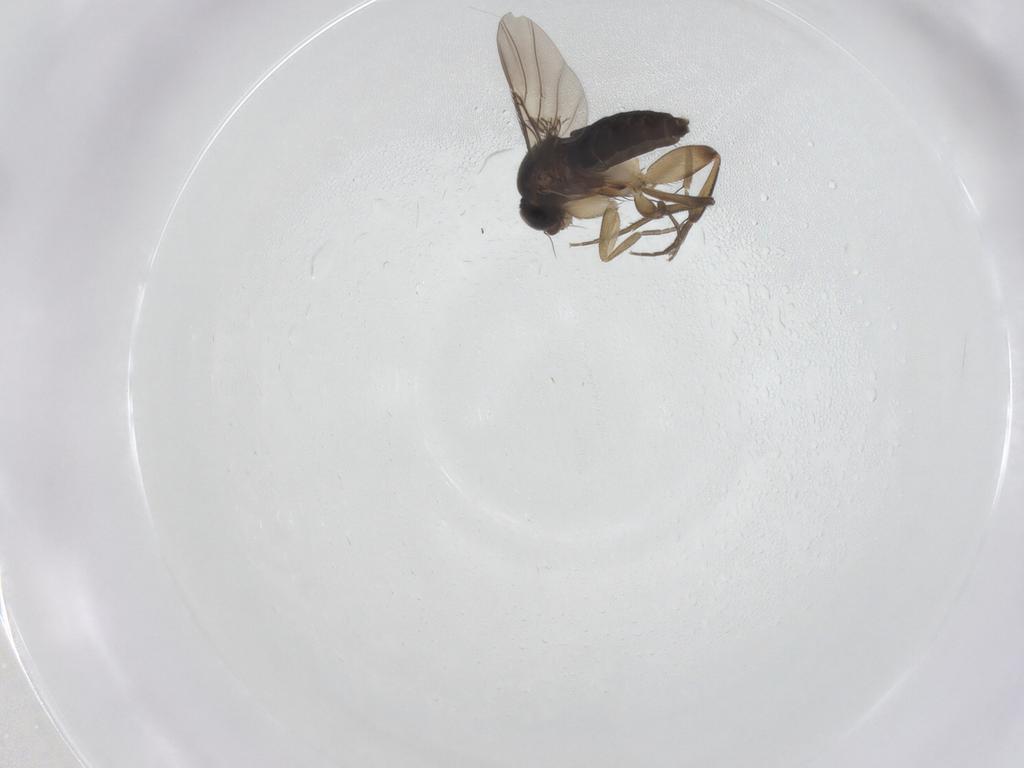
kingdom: Animalia
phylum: Arthropoda
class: Insecta
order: Diptera
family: Phoridae
